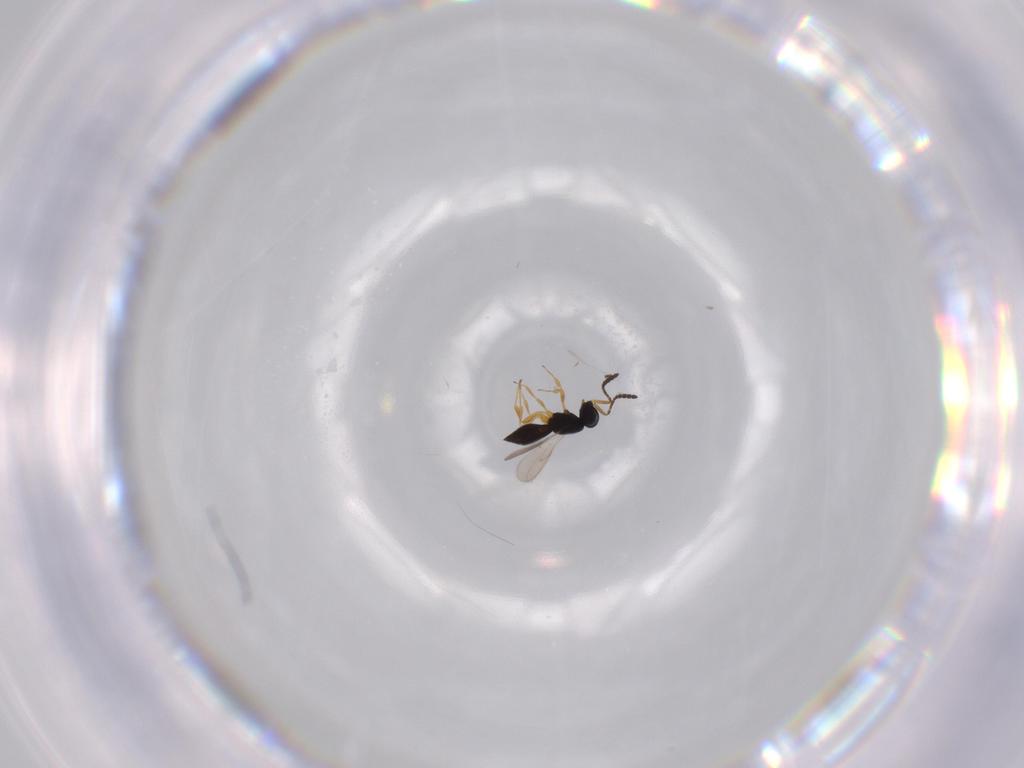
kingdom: Animalia
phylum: Arthropoda
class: Insecta
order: Hymenoptera
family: Scelionidae
